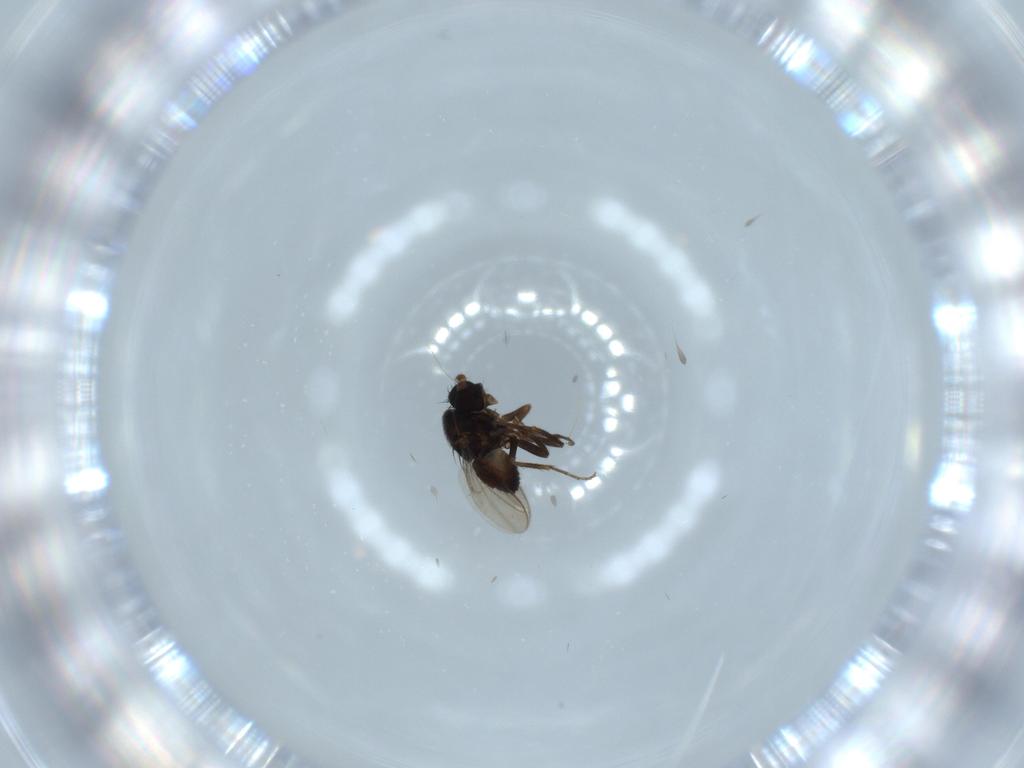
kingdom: Animalia
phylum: Arthropoda
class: Insecta
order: Diptera
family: Sphaeroceridae
